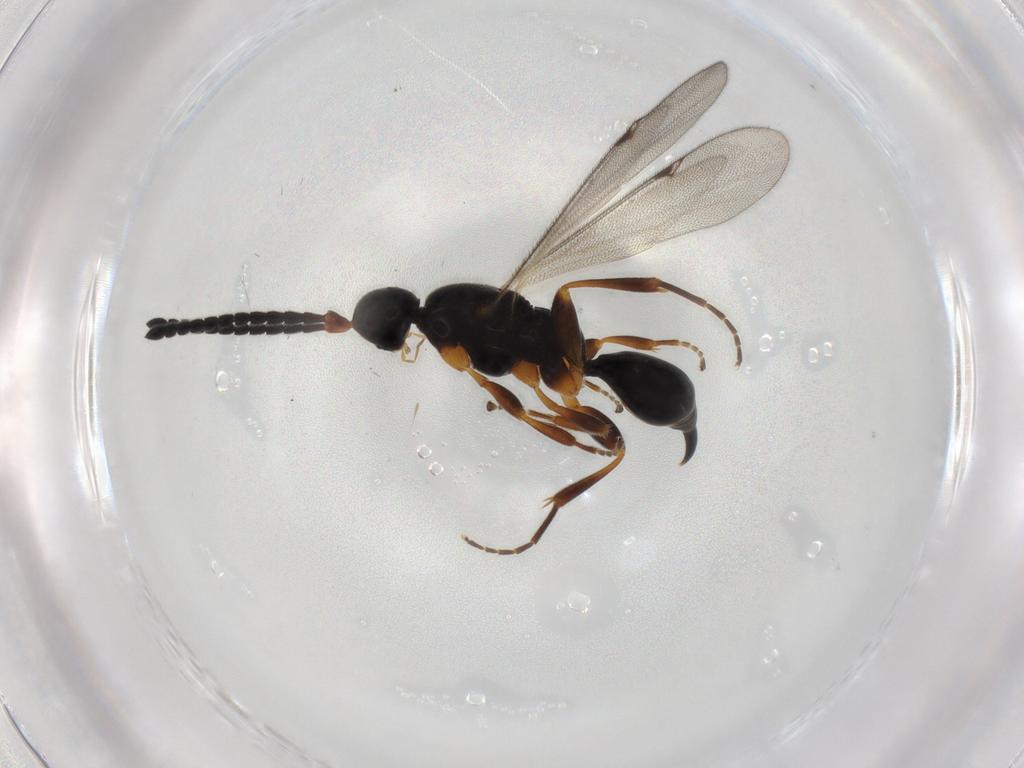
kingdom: Animalia
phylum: Arthropoda
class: Insecta
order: Hymenoptera
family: Proctotrupidae
